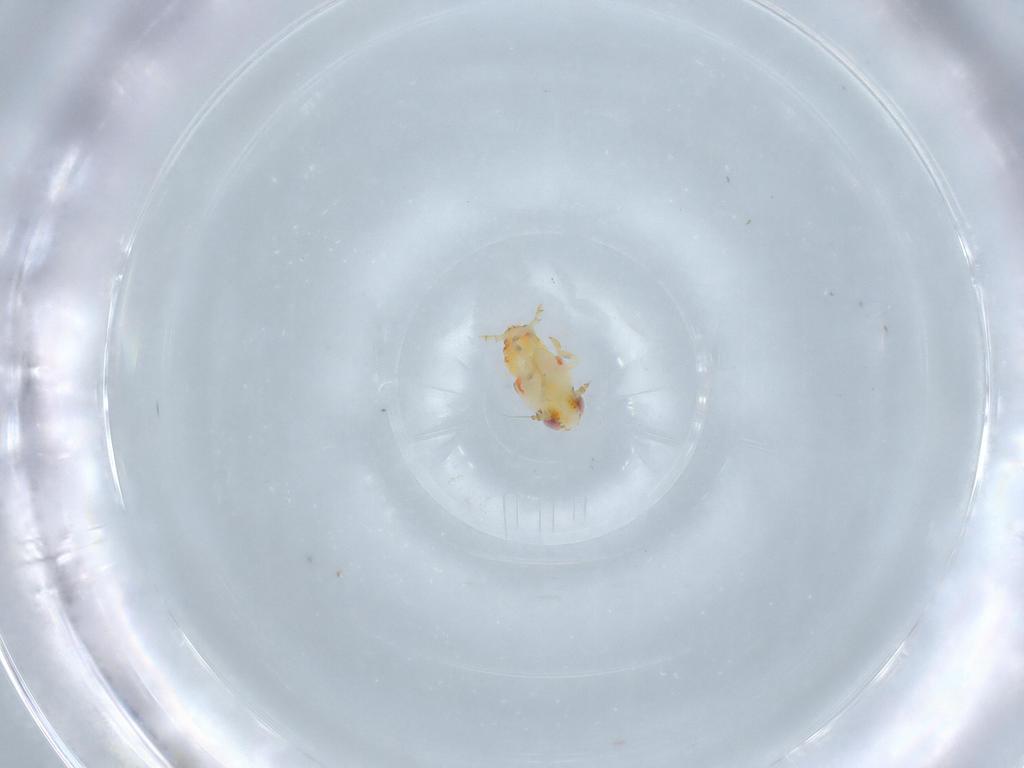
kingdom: Animalia
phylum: Arthropoda
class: Insecta
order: Hemiptera
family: Nogodinidae
